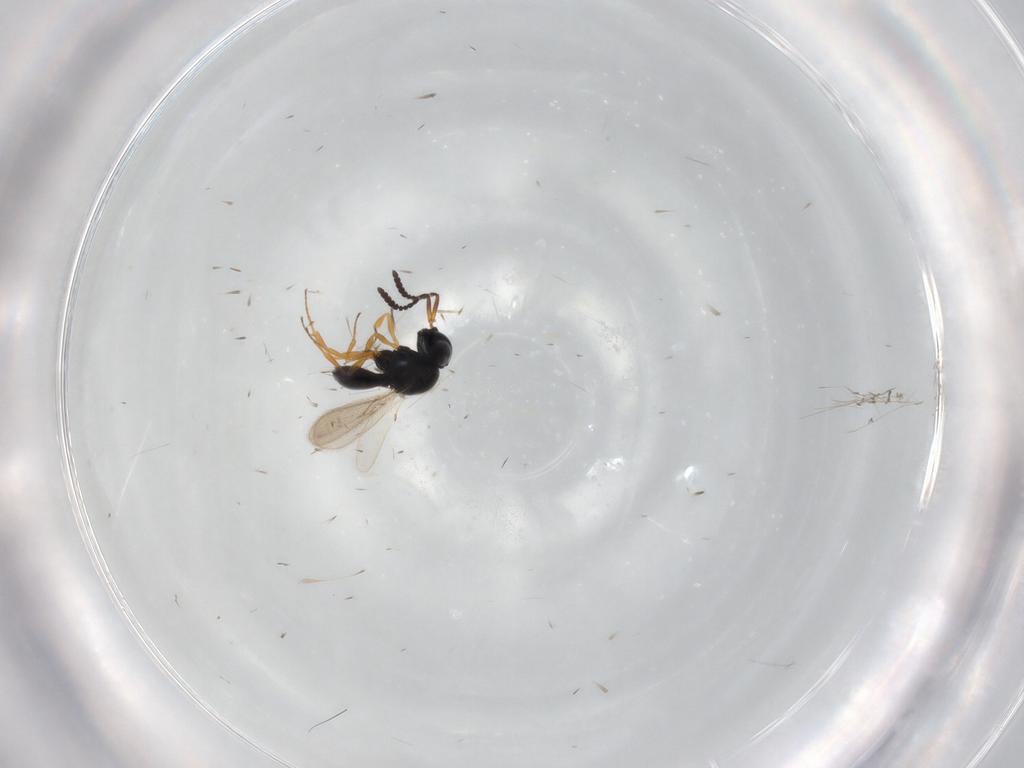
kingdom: Animalia
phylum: Arthropoda
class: Insecta
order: Hymenoptera
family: Scelionidae
